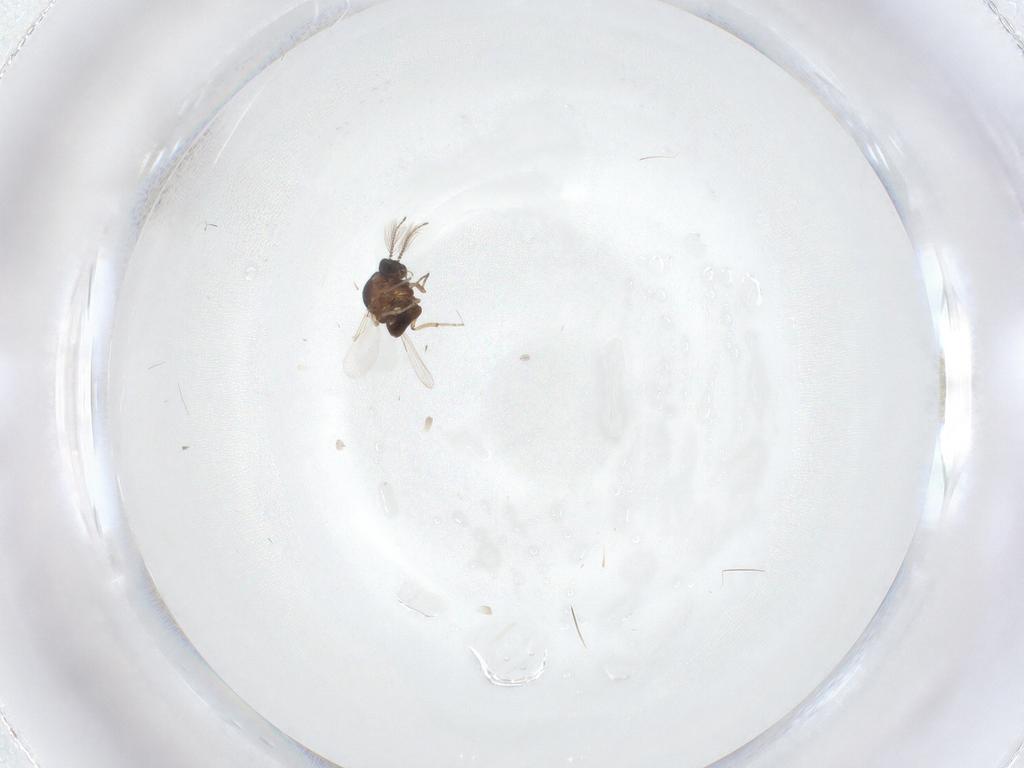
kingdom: Animalia
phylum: Arthropoda
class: Insecta
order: Diptera
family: Ceratopogonidae
